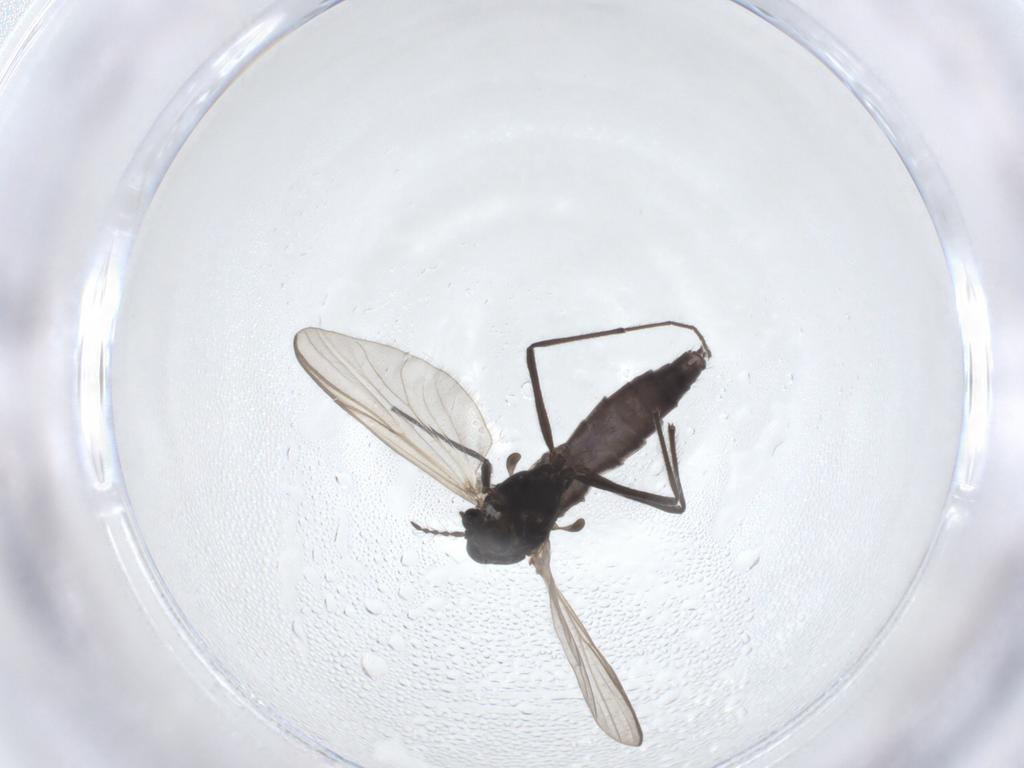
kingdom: Animalia
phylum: Arthropoda
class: Insecta
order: Diptera
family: Chironomidae
